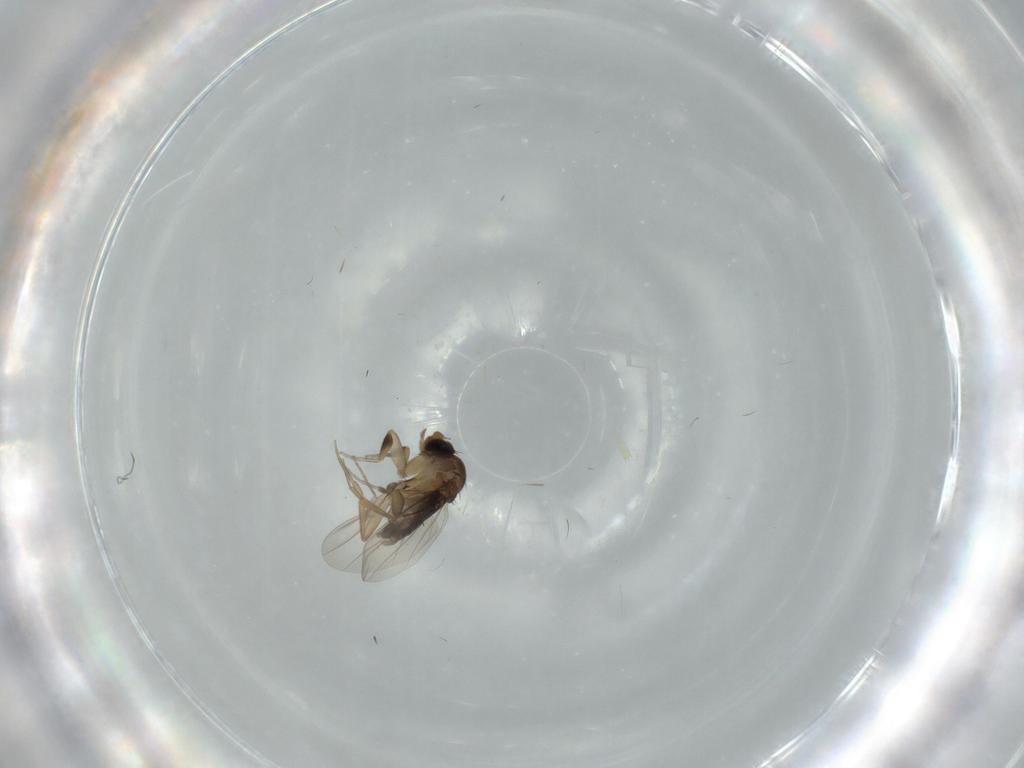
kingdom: Animalia
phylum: Arthropoda
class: Insecta
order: Diptera
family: Phoridae
